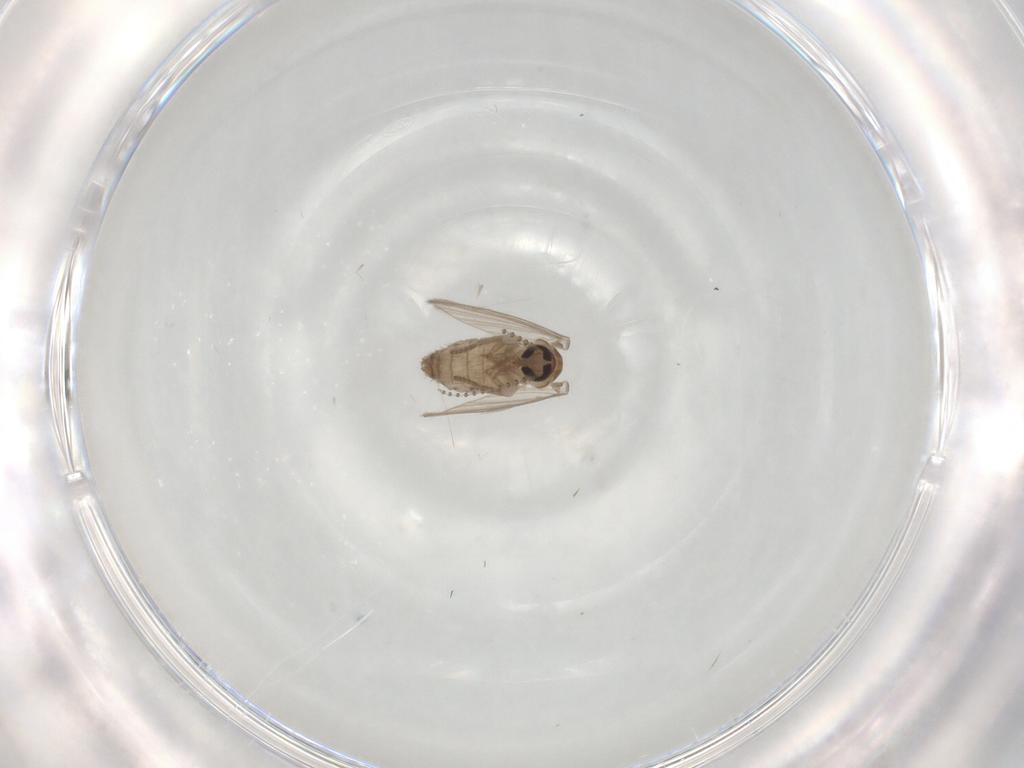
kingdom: Animalia
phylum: Arthropoda
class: Insecta
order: Diptera
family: Psychodidae
